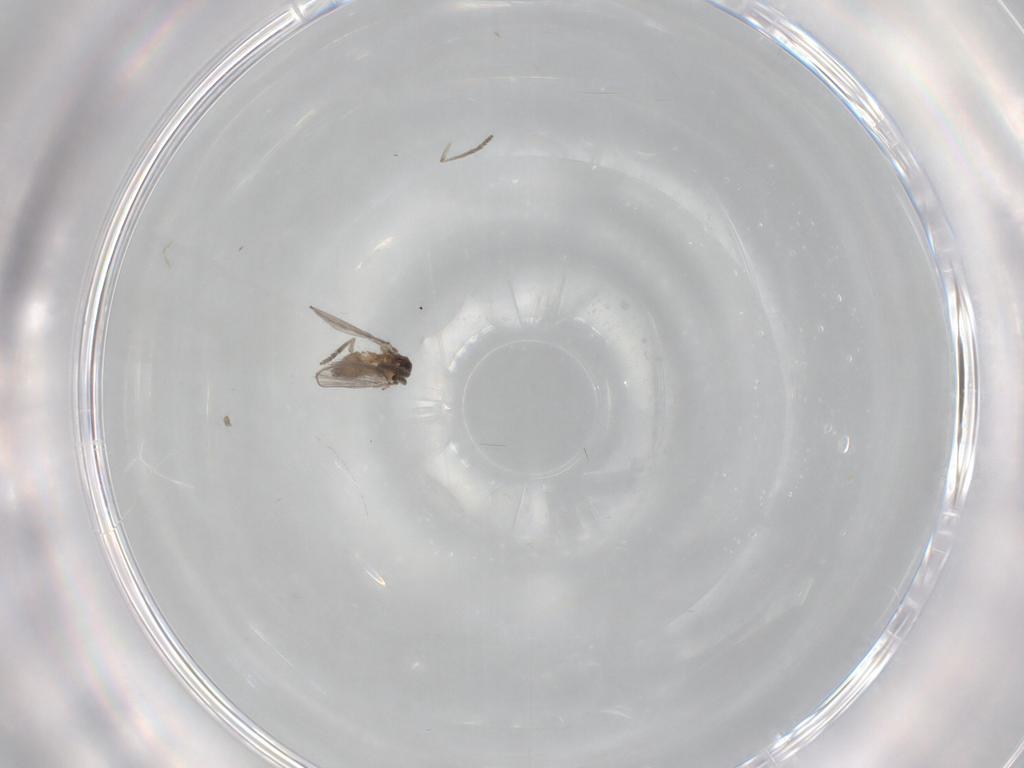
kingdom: Animalia
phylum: Arthropoda
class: Insecta
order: Diptera
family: Psychodidae
